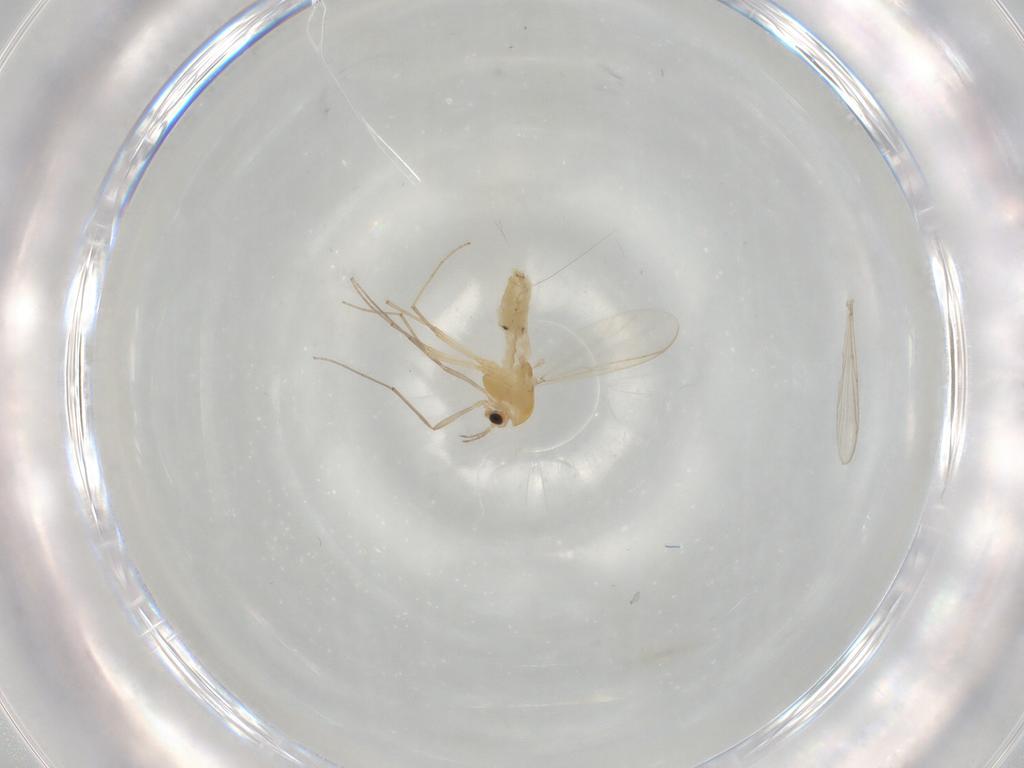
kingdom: Animalia
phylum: Arthropoda
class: Insecta
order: Diptera
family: Chironomidae
